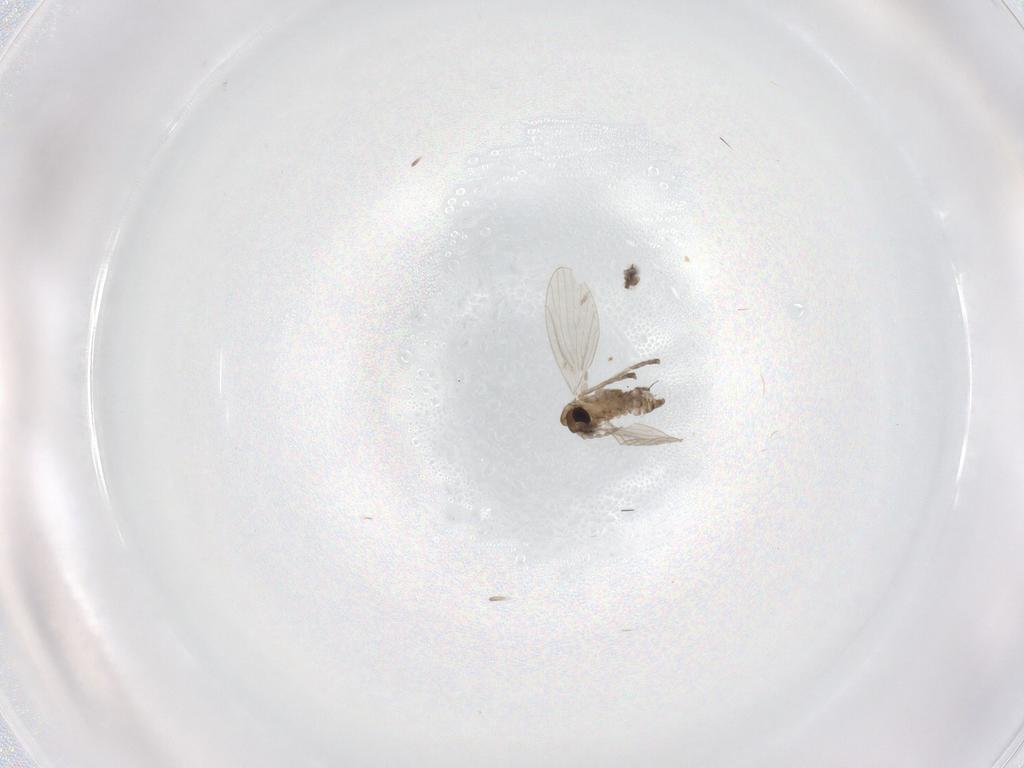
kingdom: Animalia
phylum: Arthropoda
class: Insecta
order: Diptera
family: Sciaridae
